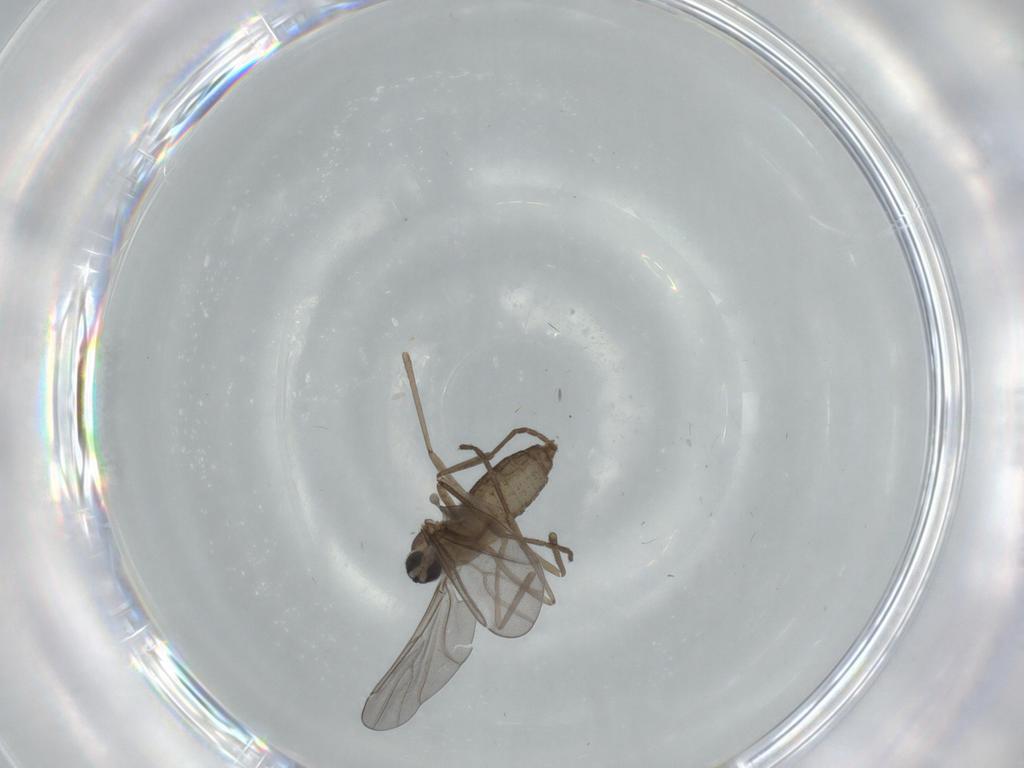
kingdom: Animalia
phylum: Arthropoda
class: Insecta
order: Diptera
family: Cecidomyiidae
